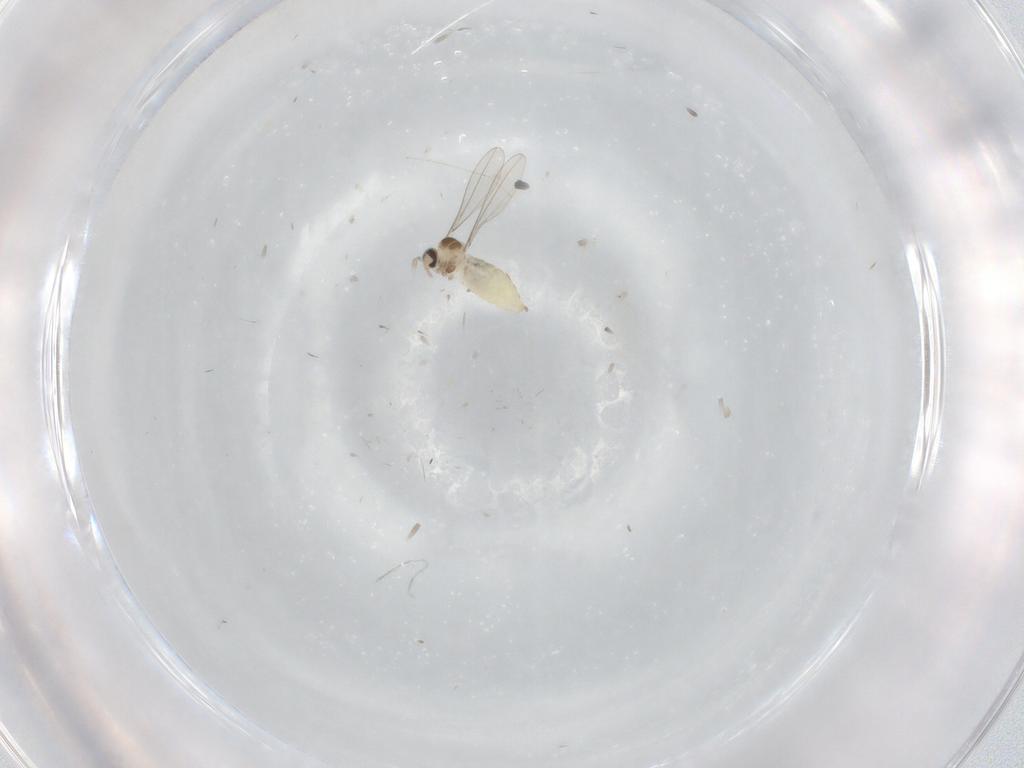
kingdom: Animalia
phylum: Arthropoda
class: Insecta
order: Diptera
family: Cecidomyiidae
